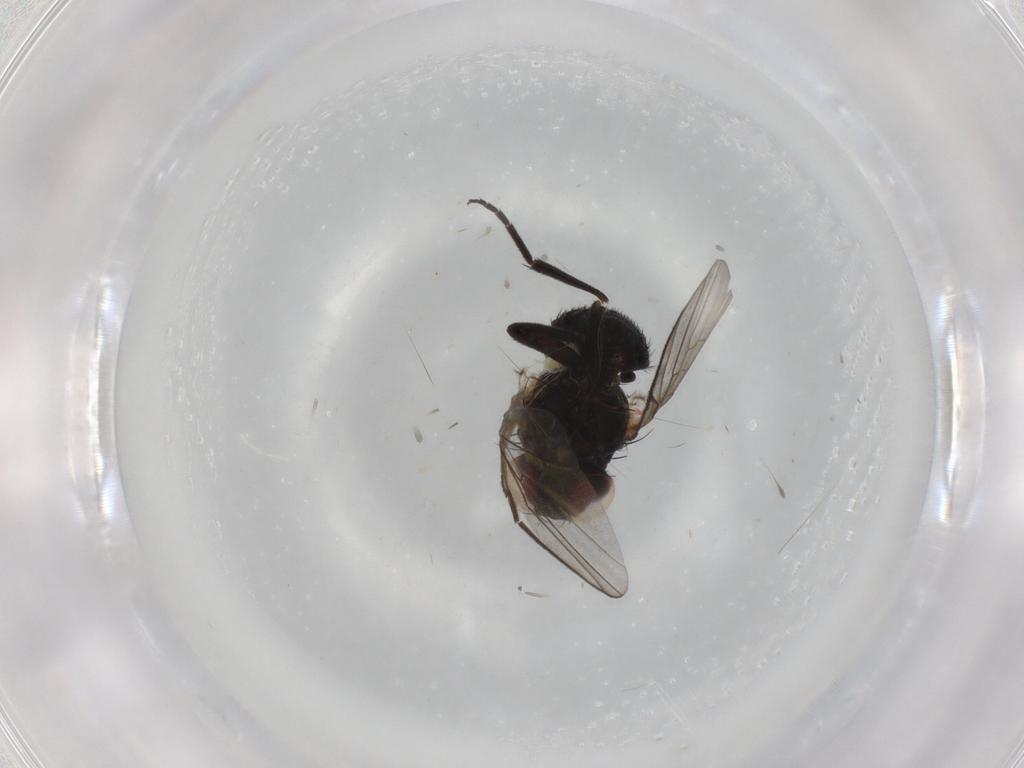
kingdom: Animalia
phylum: Arthropoda
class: Insecta
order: Diptera
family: Agromyzidae
